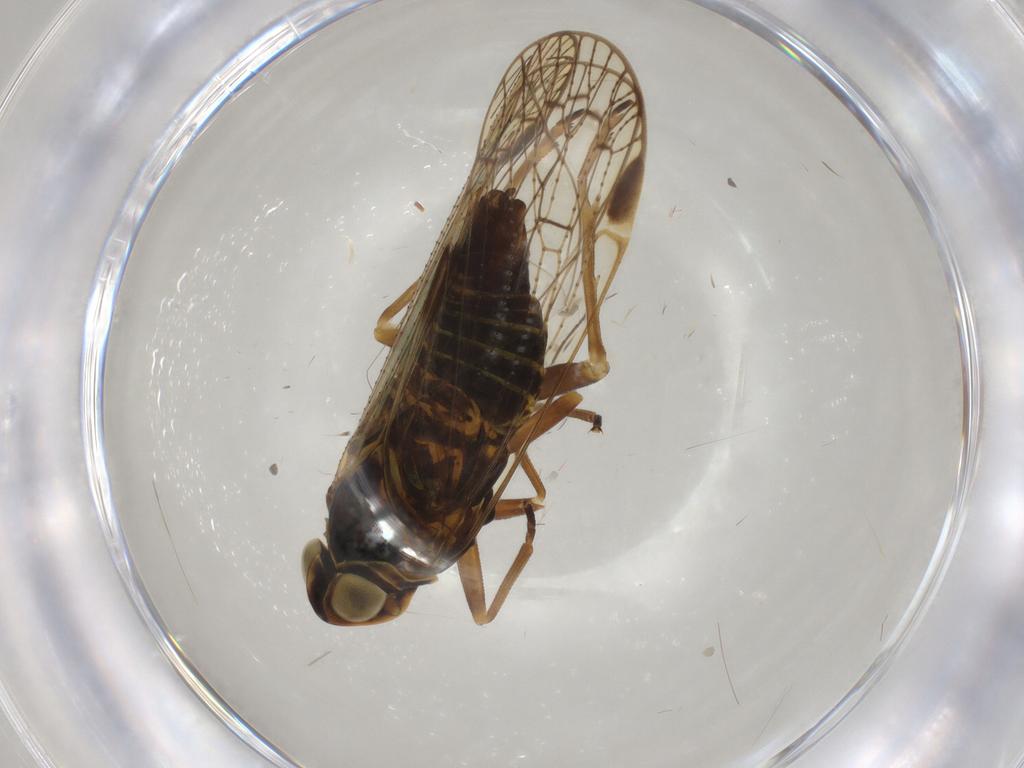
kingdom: Animalia
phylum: Arthropoda
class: Insecta
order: Hemiptera
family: Cixiidae
